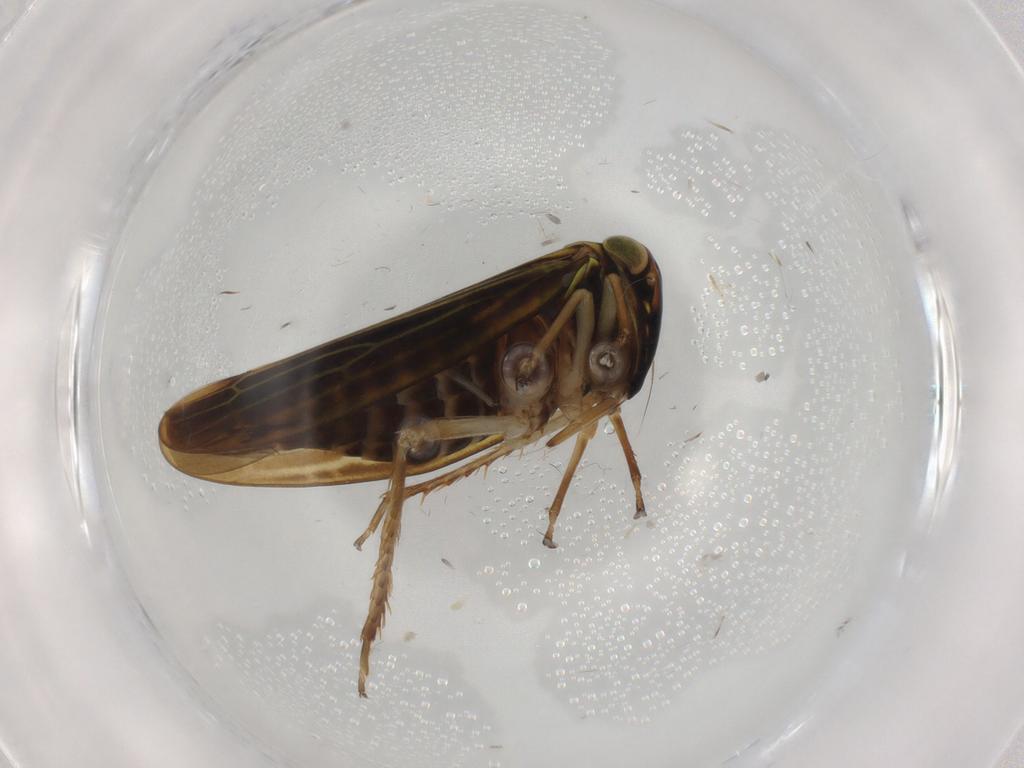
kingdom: Animalia
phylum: Arthropoda
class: Insecta
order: Hemiptera
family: Cicadellidae
